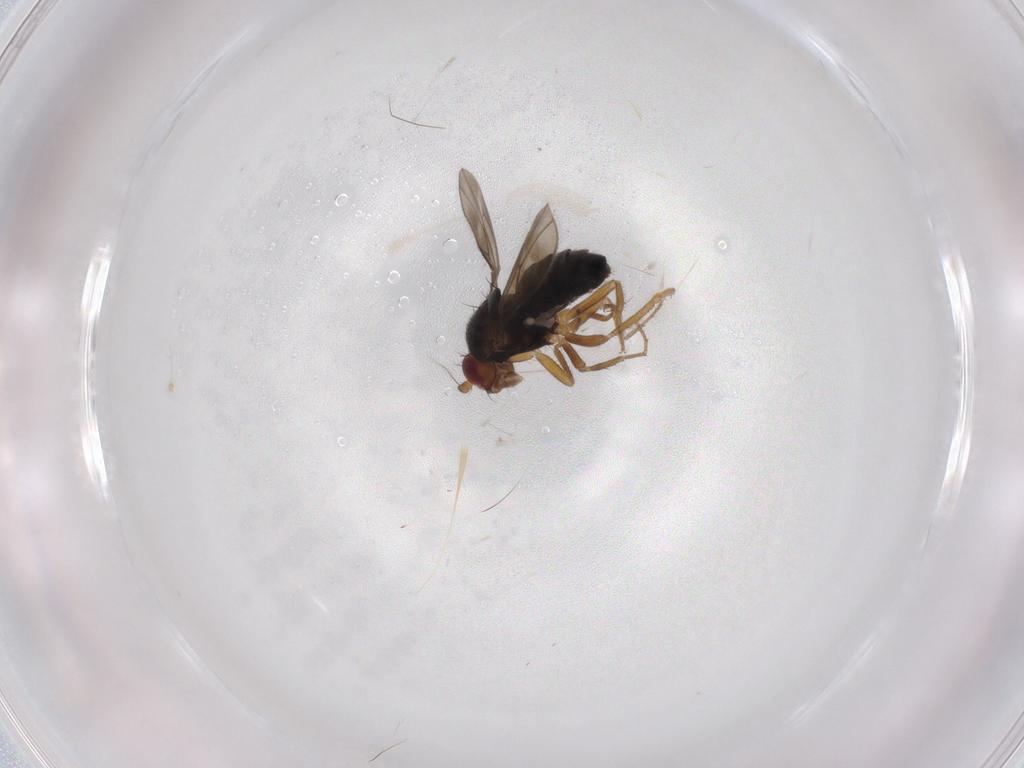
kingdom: Animalia
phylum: Arthropoda
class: Insecta
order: Diptera
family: Sphaeroceridae
